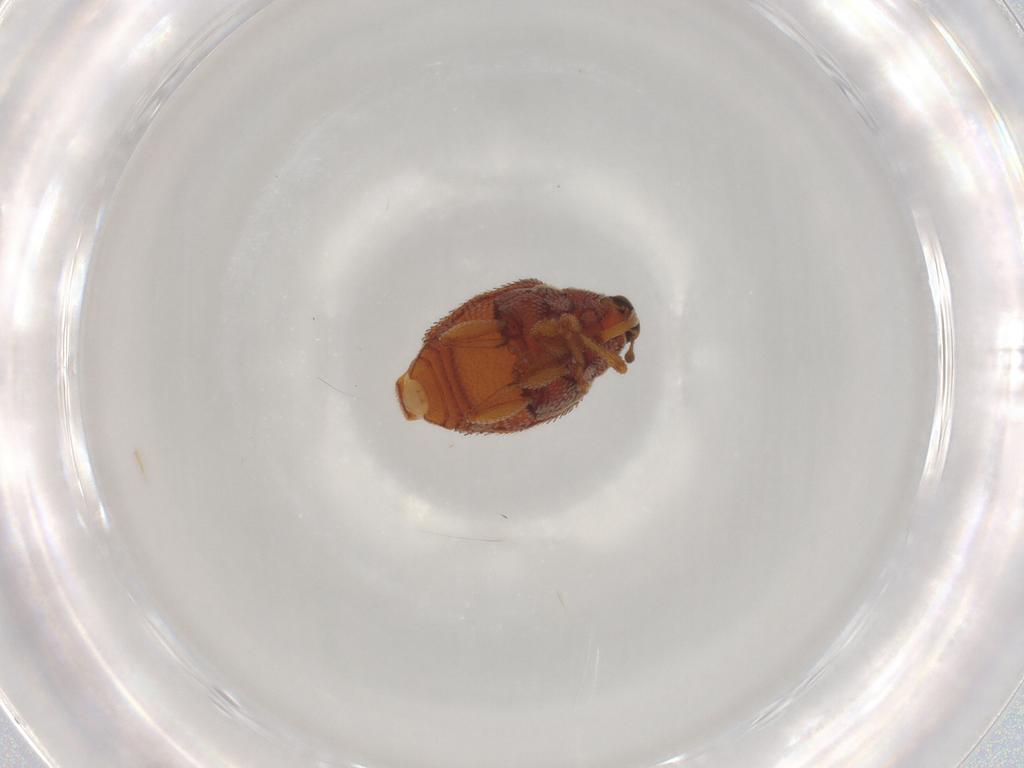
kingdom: Animalia
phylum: Arthropoda
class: Insecta
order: Coleoptera
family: Curculionidae
